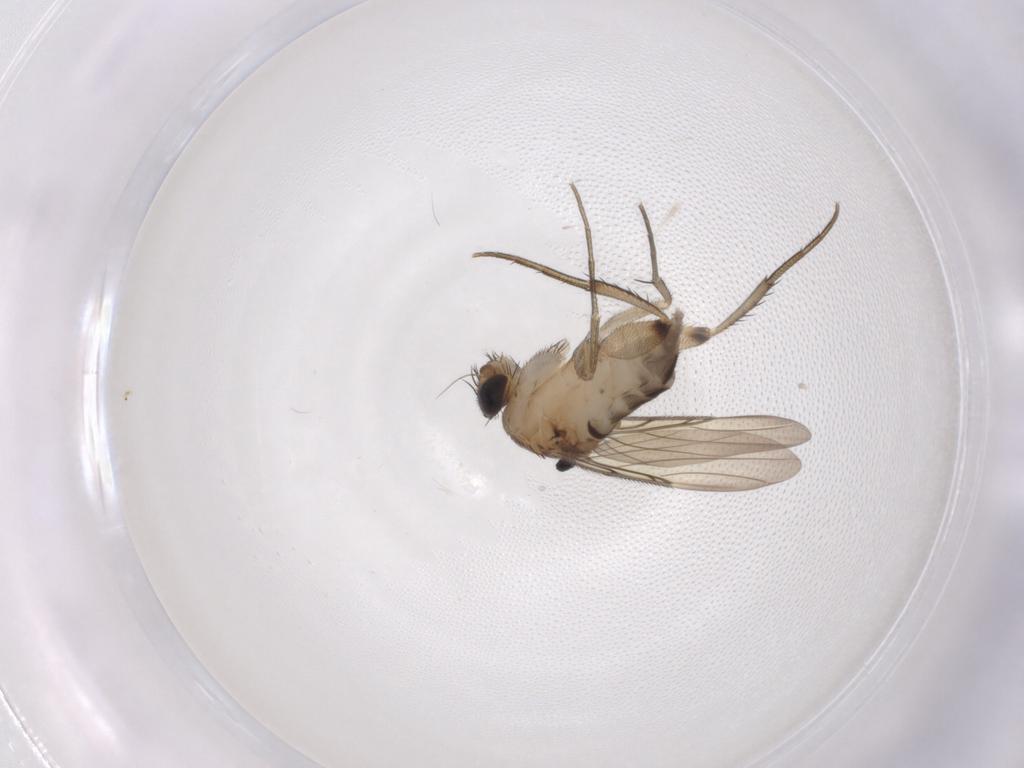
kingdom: Animalia
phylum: Arthropoda
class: Insecta
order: Diptera
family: Phoridae
